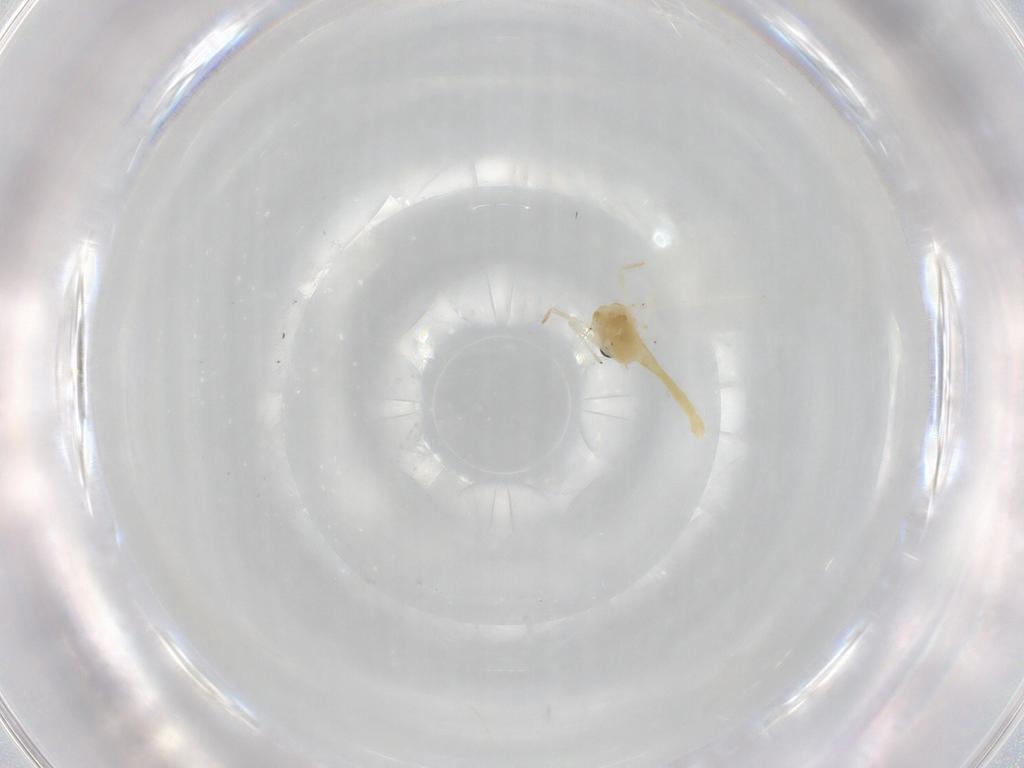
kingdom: Animalia
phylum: Arthropoda
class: Insecta
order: Diptera
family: Chironomidae
